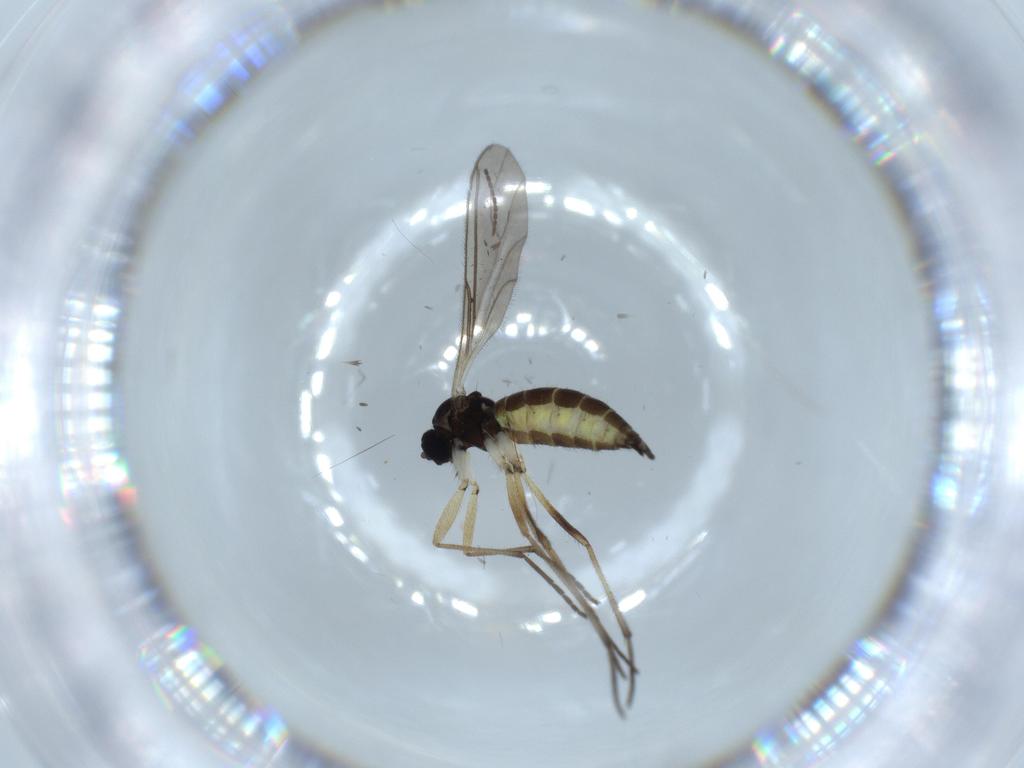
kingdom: Animalia
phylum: Arthropoda
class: Insecta
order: Diptera
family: Sciaridae
